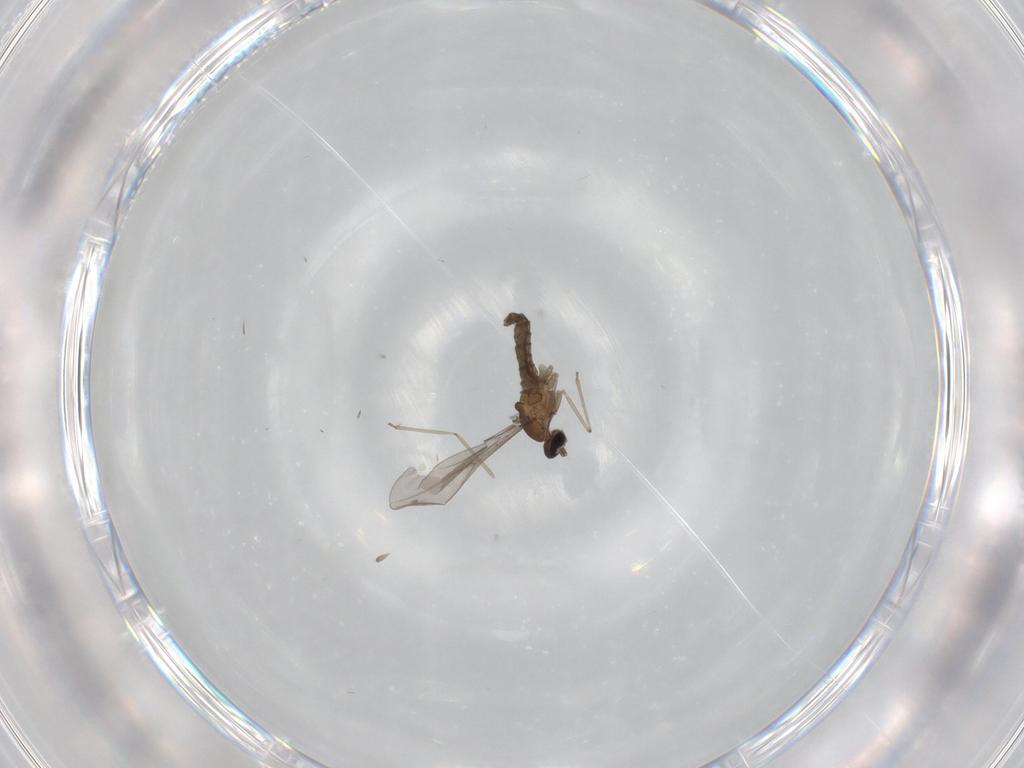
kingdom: Animalia
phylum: Arthropoda
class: Insecta
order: Diptera
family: Cecidomyiidae
